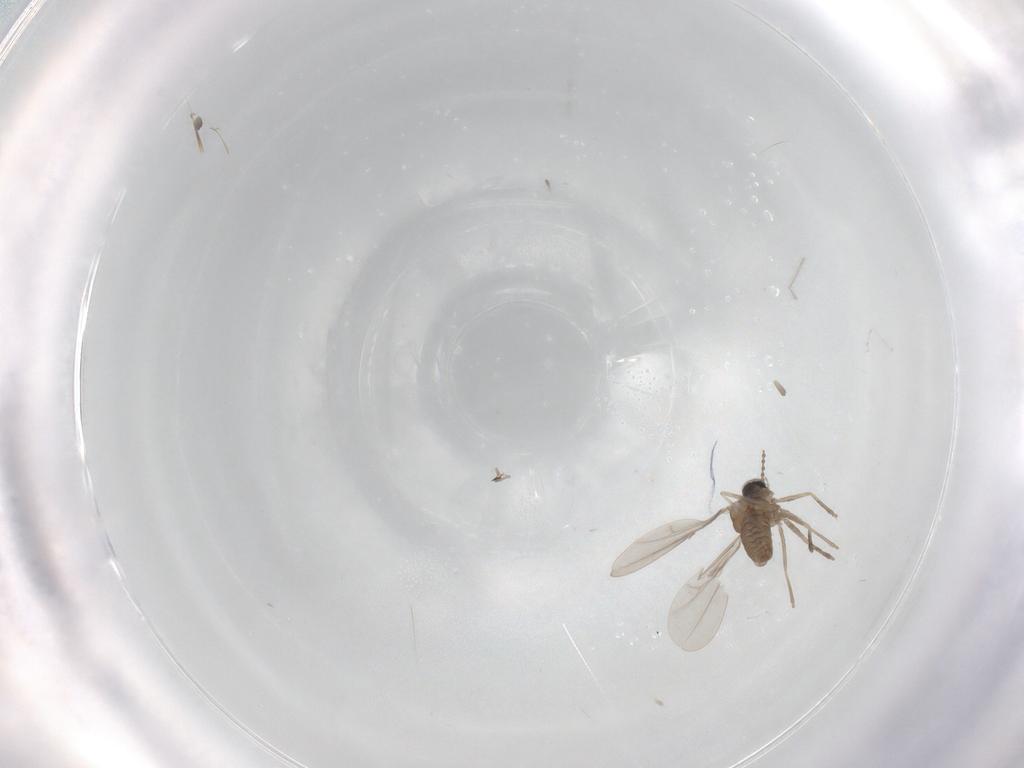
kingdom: Animalia
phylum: Arthropoda
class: Insecta
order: Diptera
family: Cecidomyiidae
